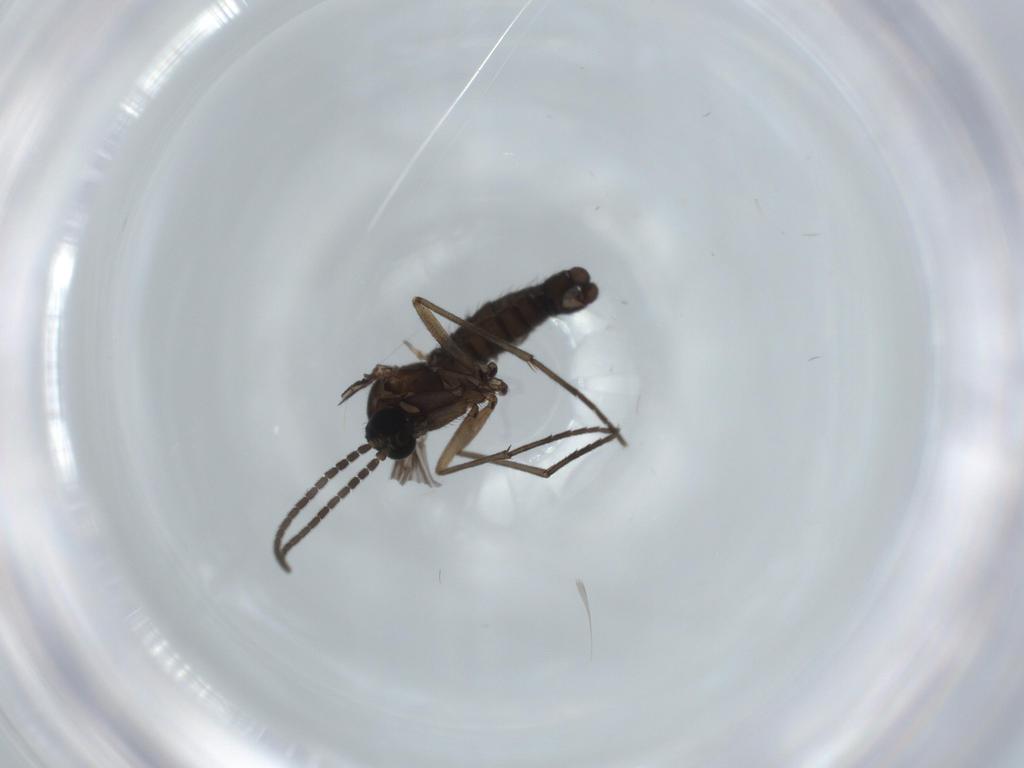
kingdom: Animalia
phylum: Arthropoda
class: Insecta
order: Diptera
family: Sciaridae
